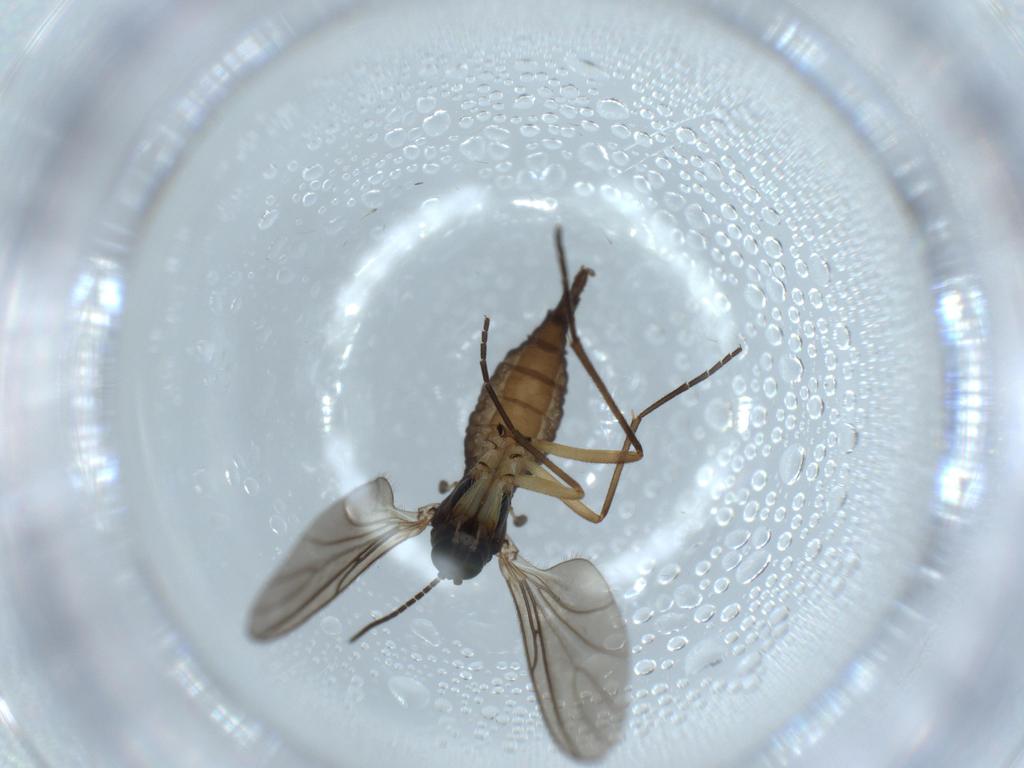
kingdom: Animalia
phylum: Arthropoda
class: Insecta
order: Diptera
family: Sciaridae
